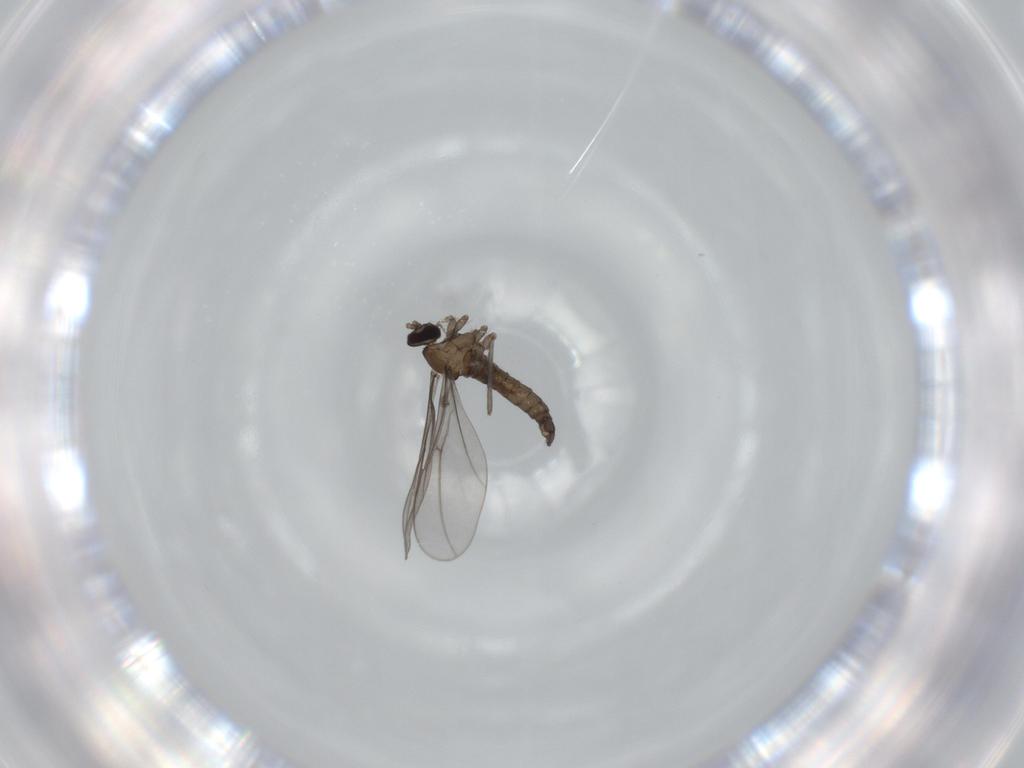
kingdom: Animalia
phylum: Arthropoda
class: Insecta
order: Diptera
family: Cecidomyiidae
